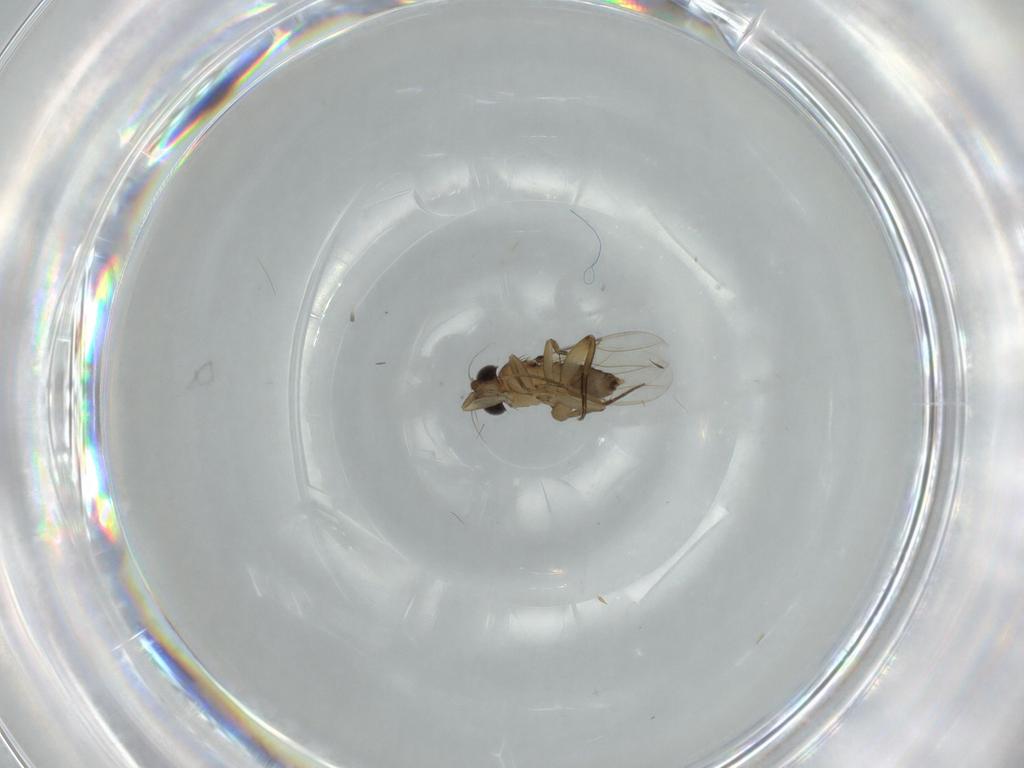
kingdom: Animalia
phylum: Arthropoda
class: Insecta
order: Diptera
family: Phoridae
